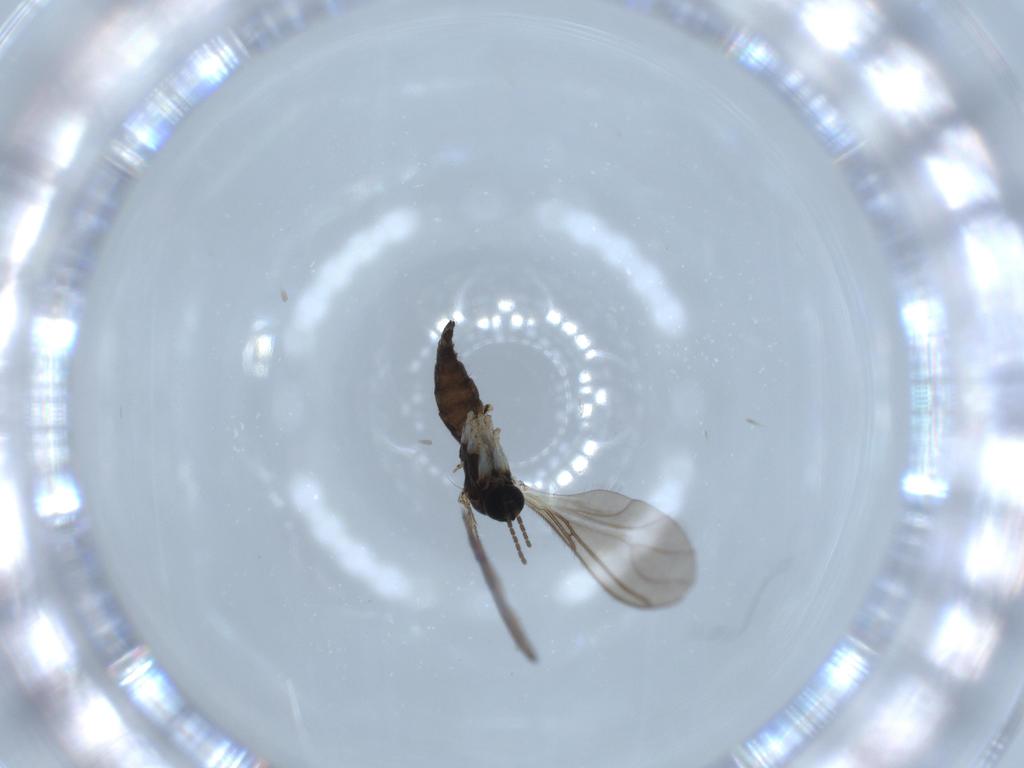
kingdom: Animalia
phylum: Arthropoda
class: Insecta
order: Diptera
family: Sciaridae
